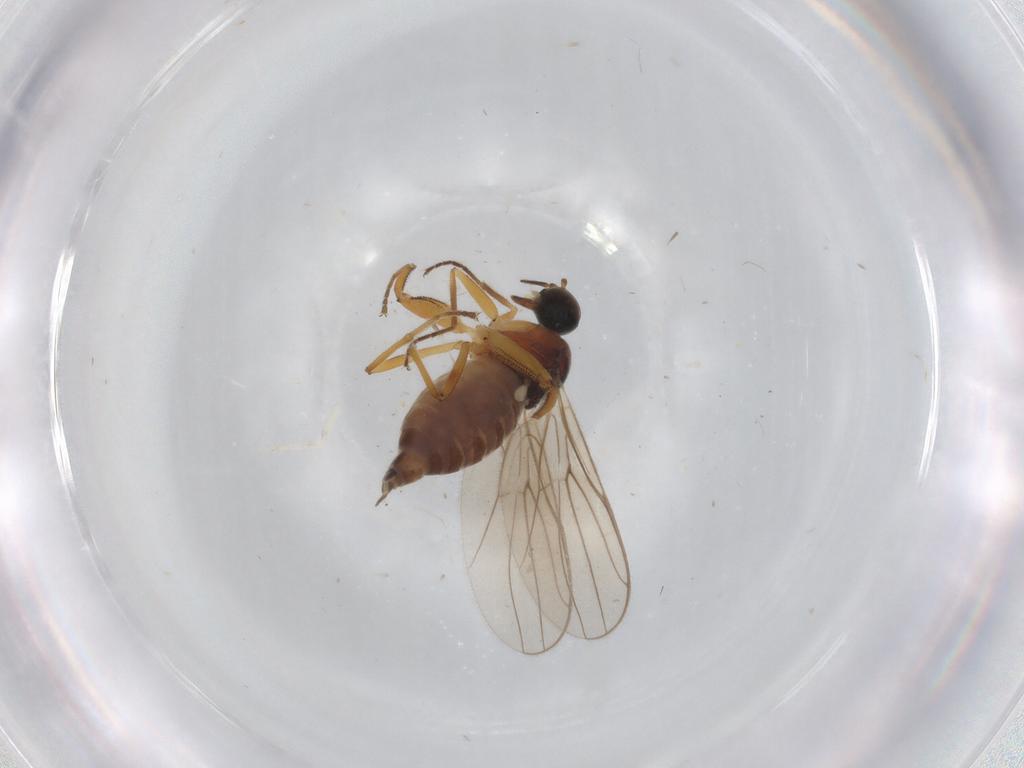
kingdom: Animalia
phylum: Arthropoda
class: Insecta
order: Diptera
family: Hybotidae
